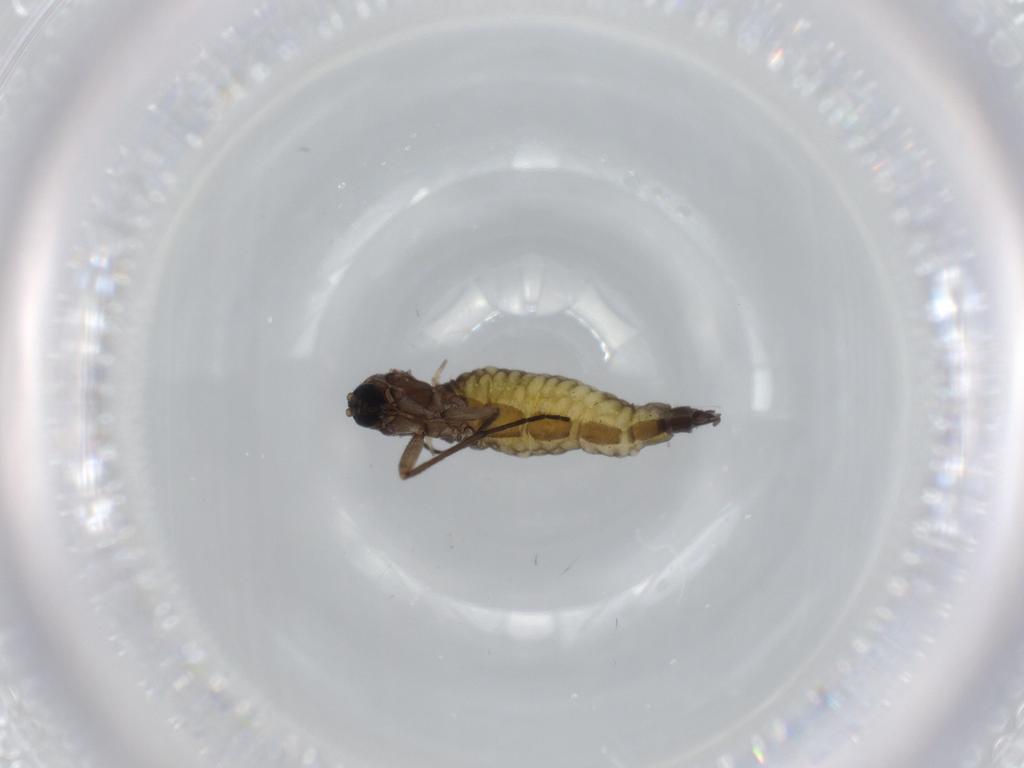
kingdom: Animalia
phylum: Arthropoda
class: Insecta
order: Diptera
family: Sciaridae
